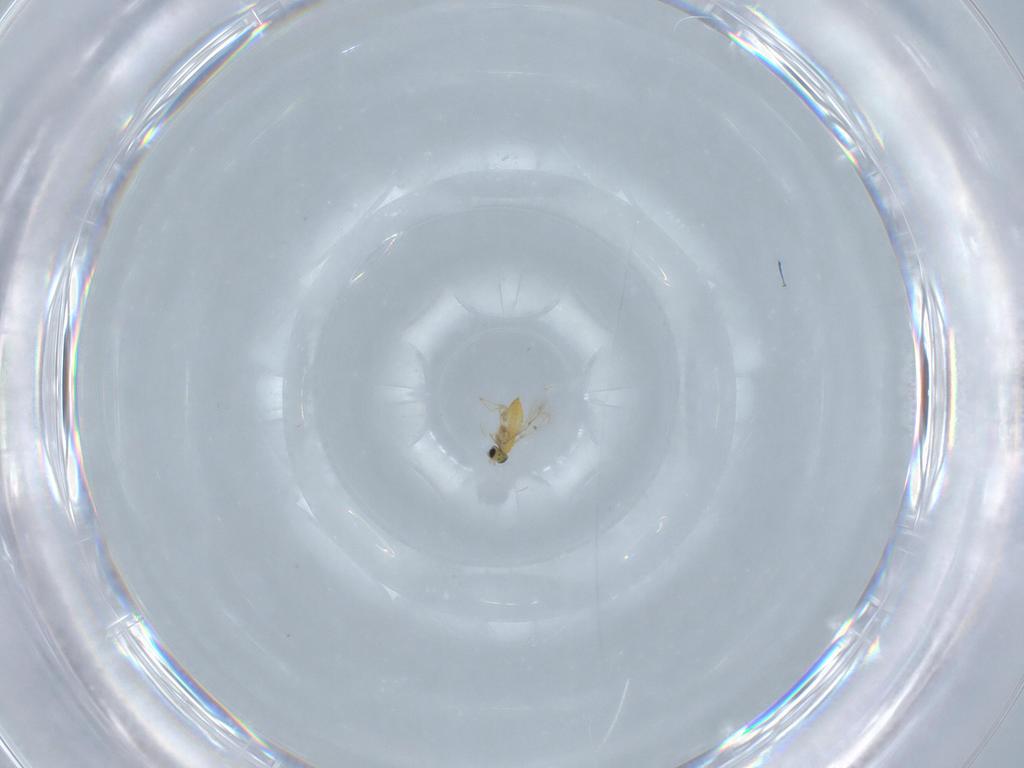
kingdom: Animalia
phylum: Arthropoda
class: Insecta
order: Hymenoptera
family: Trichogrammatidae
